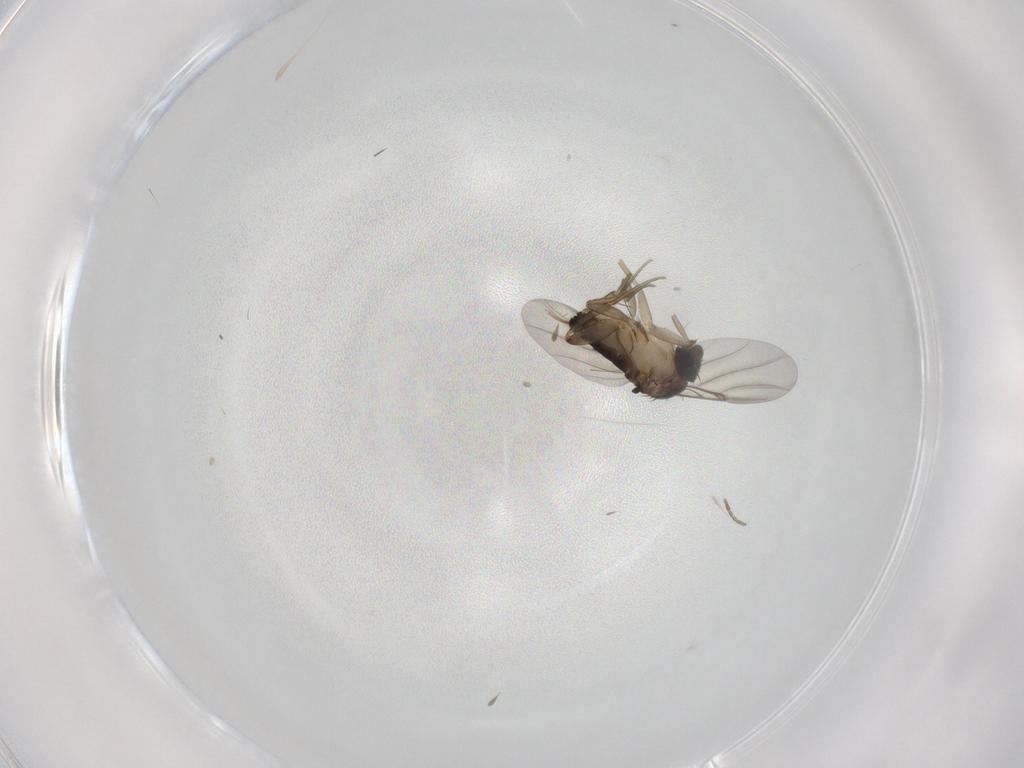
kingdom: Animalia
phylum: Arthropoda
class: Insecta
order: Diptera
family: Phoridae
